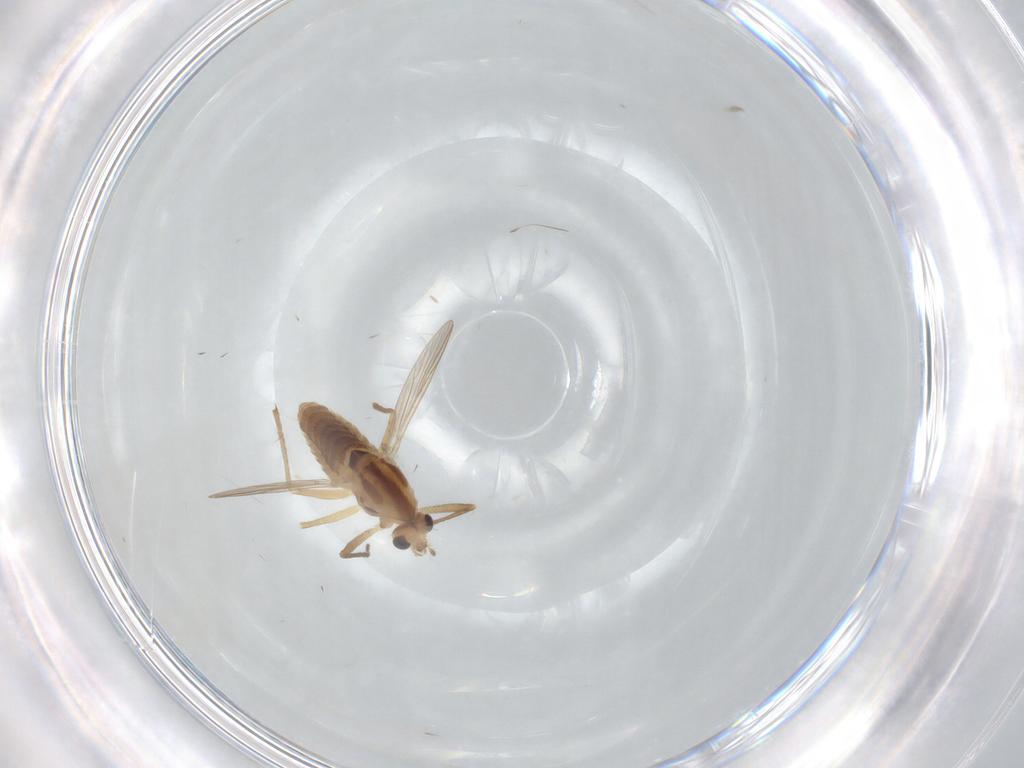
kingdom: Animalia
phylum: Arthropoda
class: Insecta
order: Diptera
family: Chironomidae
